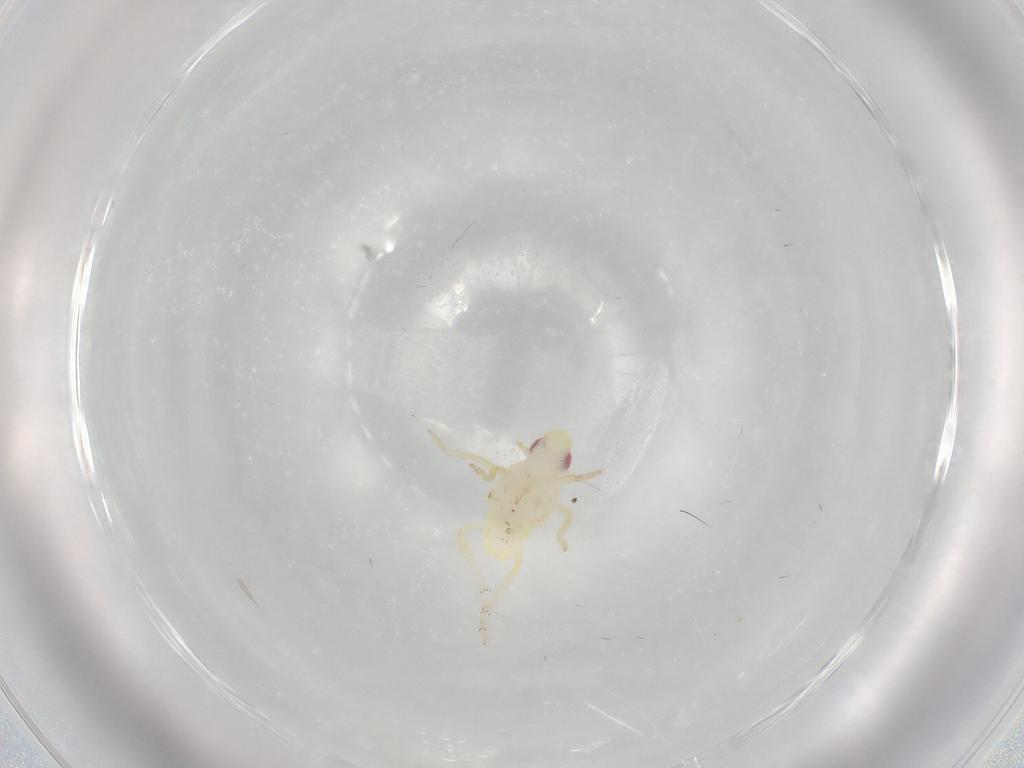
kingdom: Animalia
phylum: Arthropoda
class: Insecta
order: Hemiptera
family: Tropiduchidae
